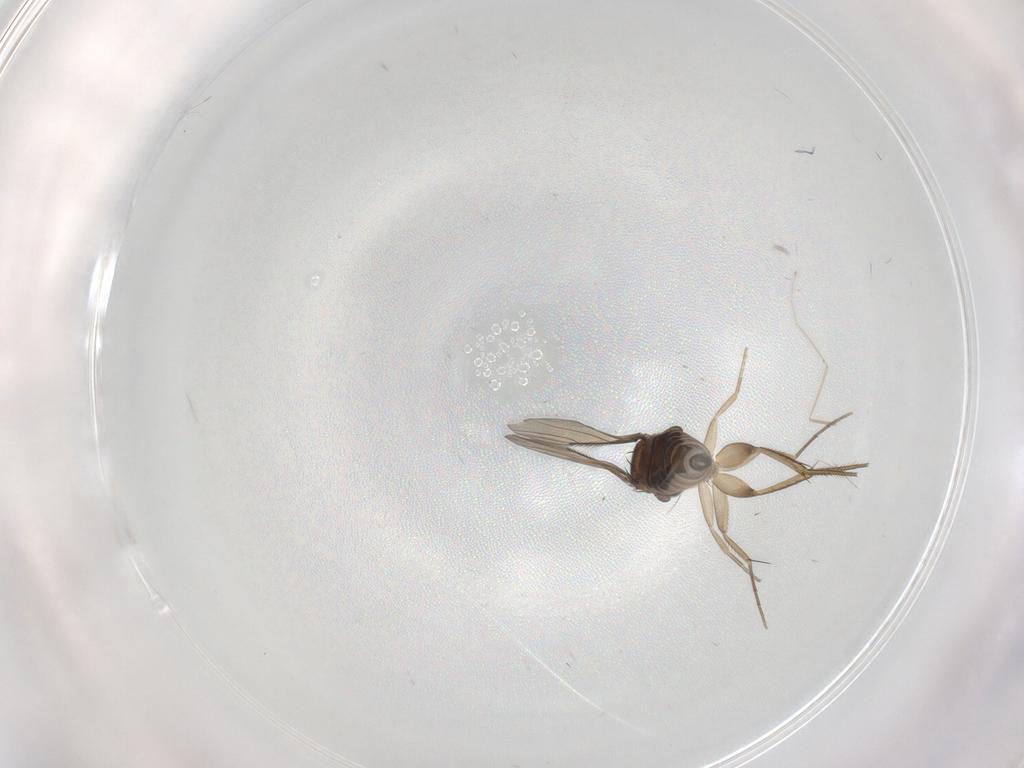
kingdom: Animalia
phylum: Arthropoda
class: Insecta
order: Diptera
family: Phoridae
